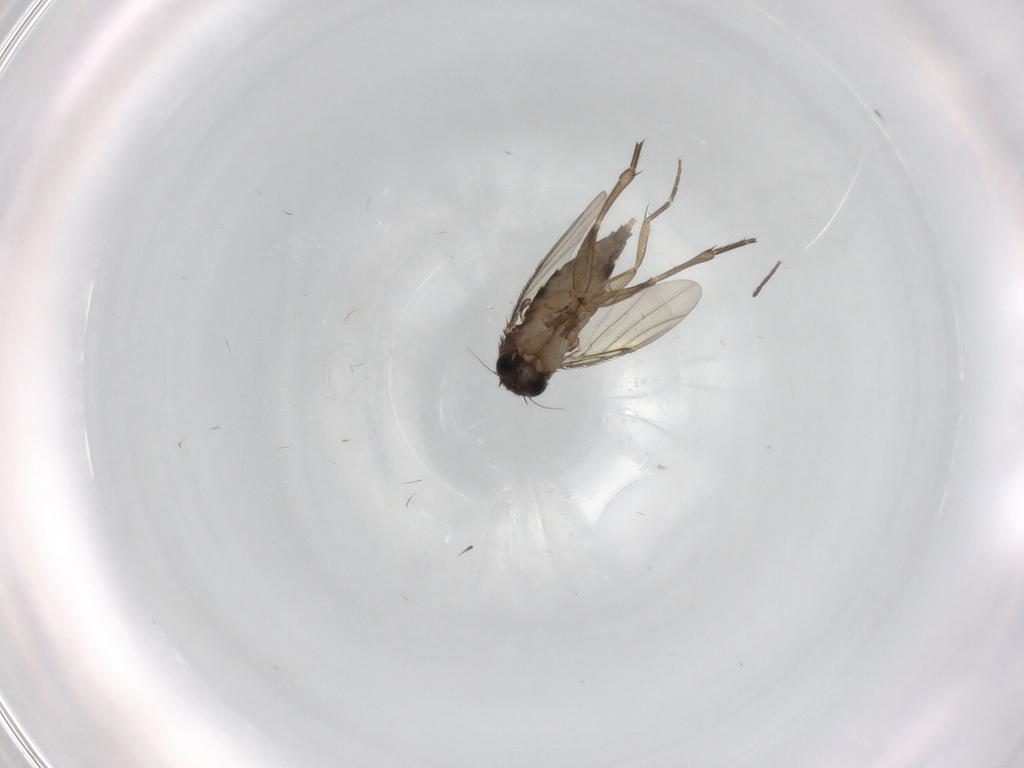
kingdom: Animalia
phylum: Arthropoda
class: Insecta
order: Diptera
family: Phoridae
